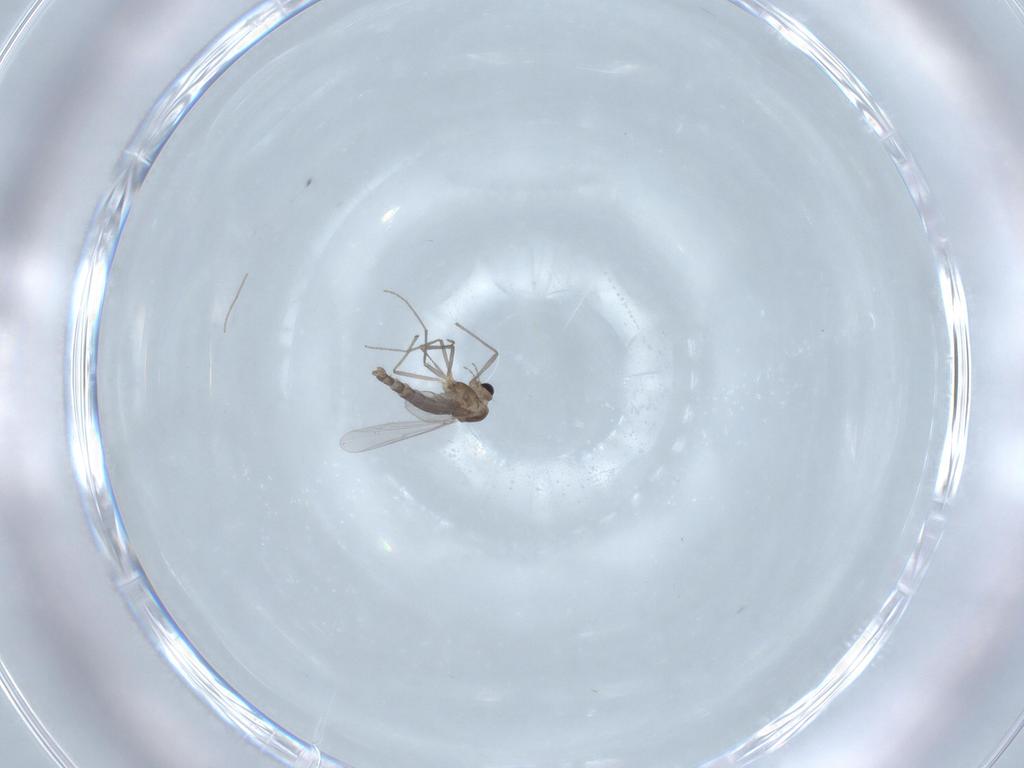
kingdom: Animalia
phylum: Arthropoda
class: Insecta
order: Diptera
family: Chironomidae
